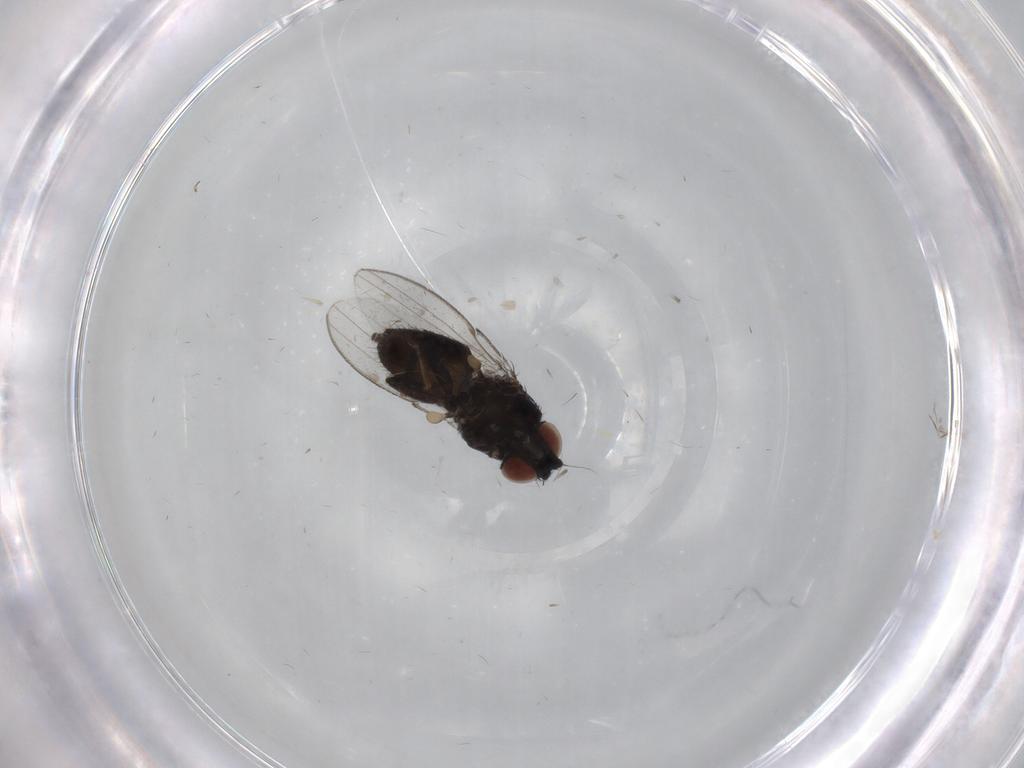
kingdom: Animalia
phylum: Arthropoda
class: Insecta
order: Diptera
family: Milichiidae
